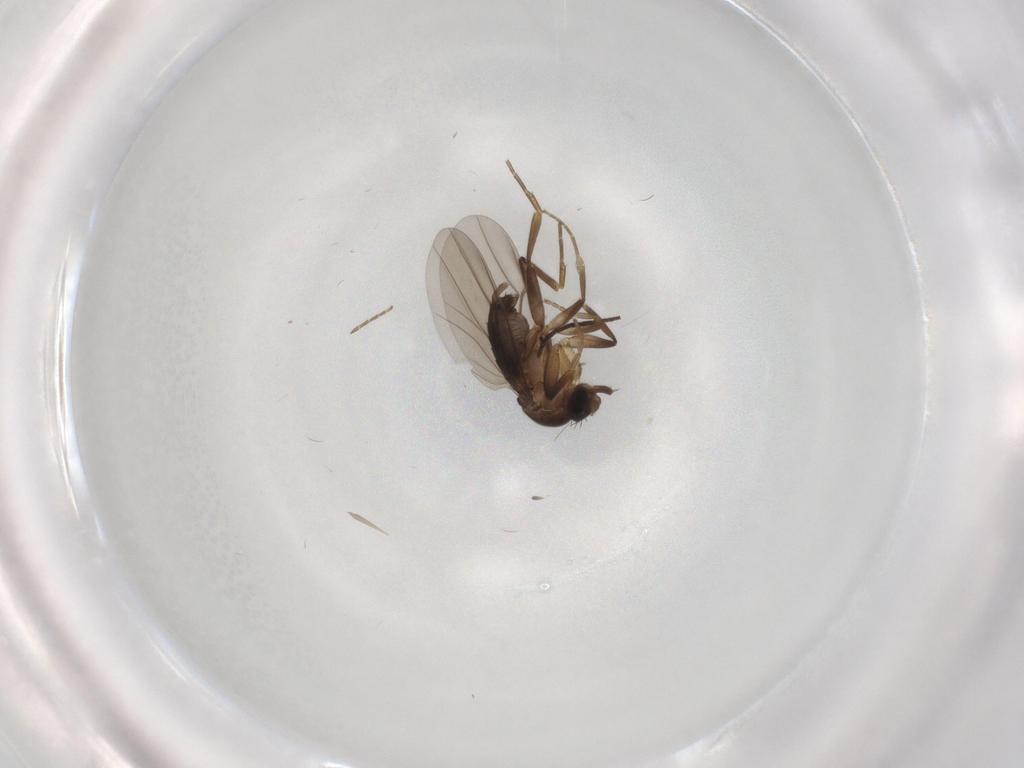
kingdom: Animalia
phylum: Arthropoda
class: Insecta
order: Diptera
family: Phoridae
